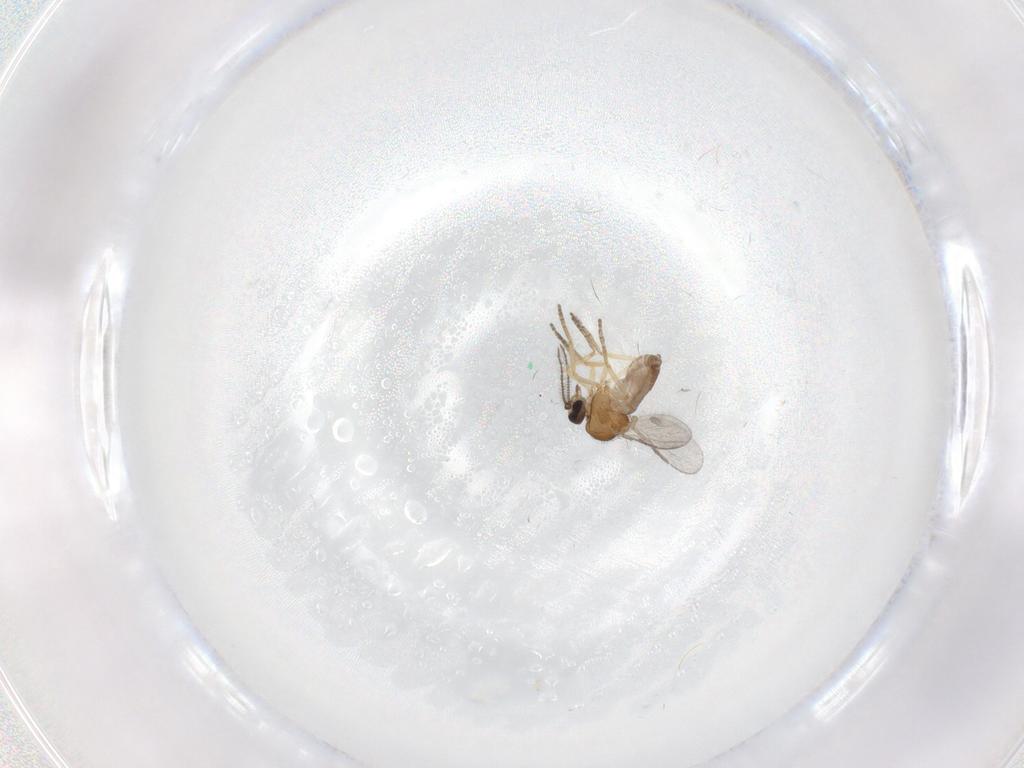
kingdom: Animalia
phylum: Arthropoda
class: Insecta
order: Diptera
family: Ceratopogonidae
